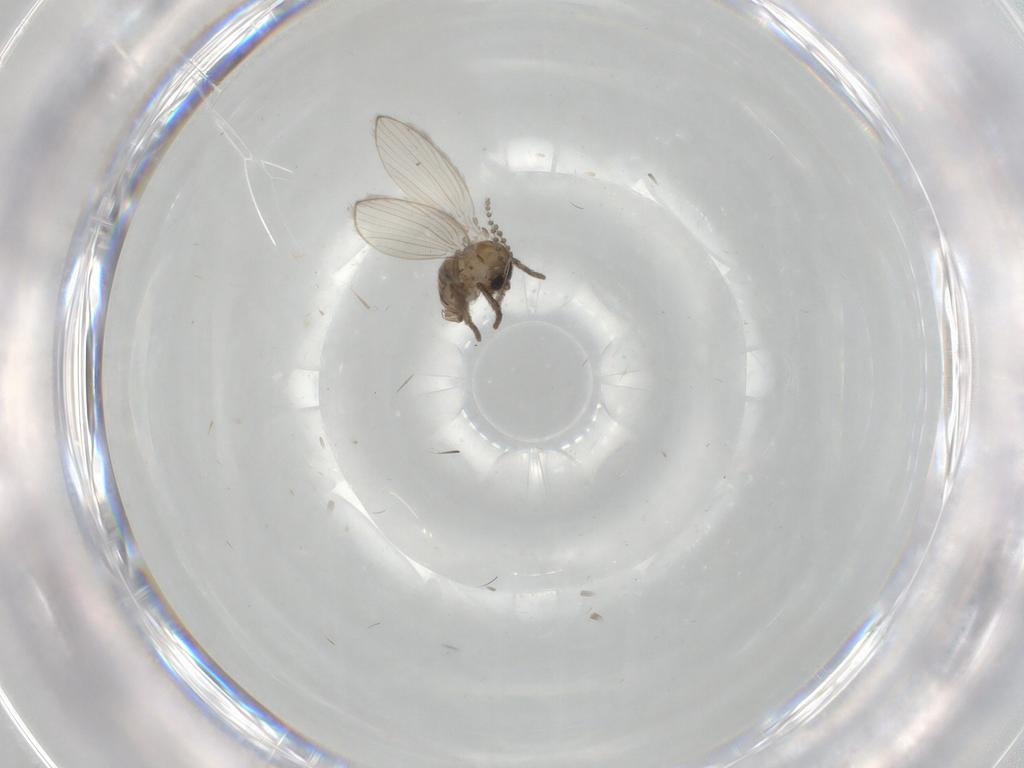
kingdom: Animalia
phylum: Arthropoda
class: Insecta
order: Diptera
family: Psychodidae
